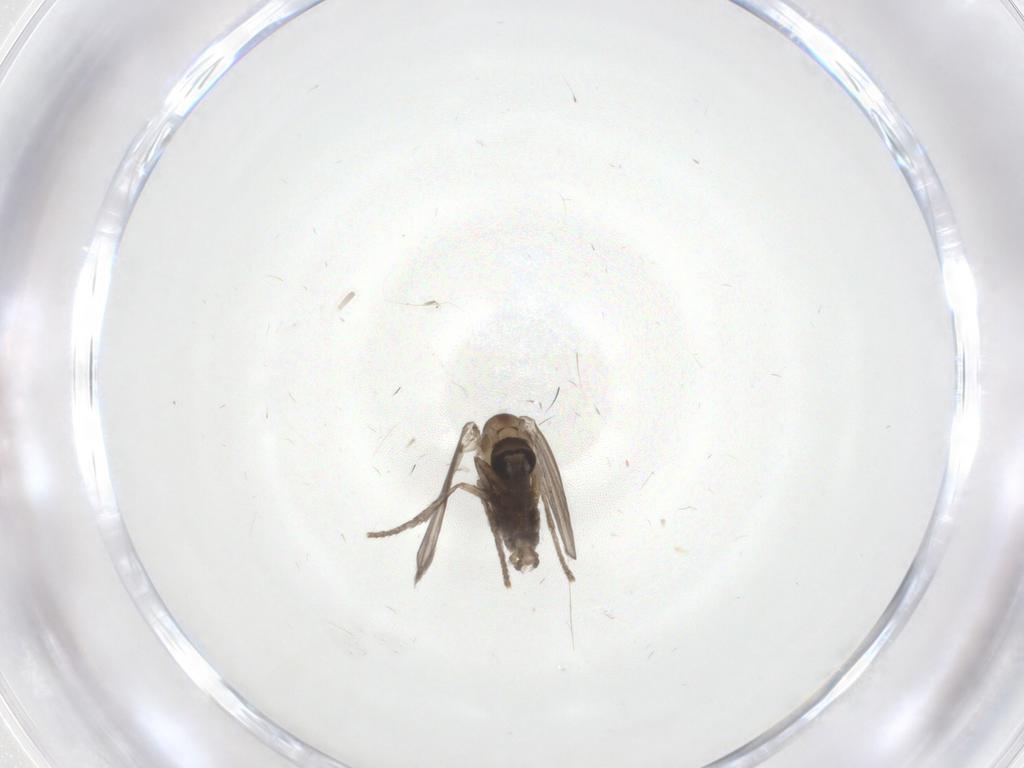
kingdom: Animalia
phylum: Arthropoda
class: Insecta
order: Diptera
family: Psychodidae
